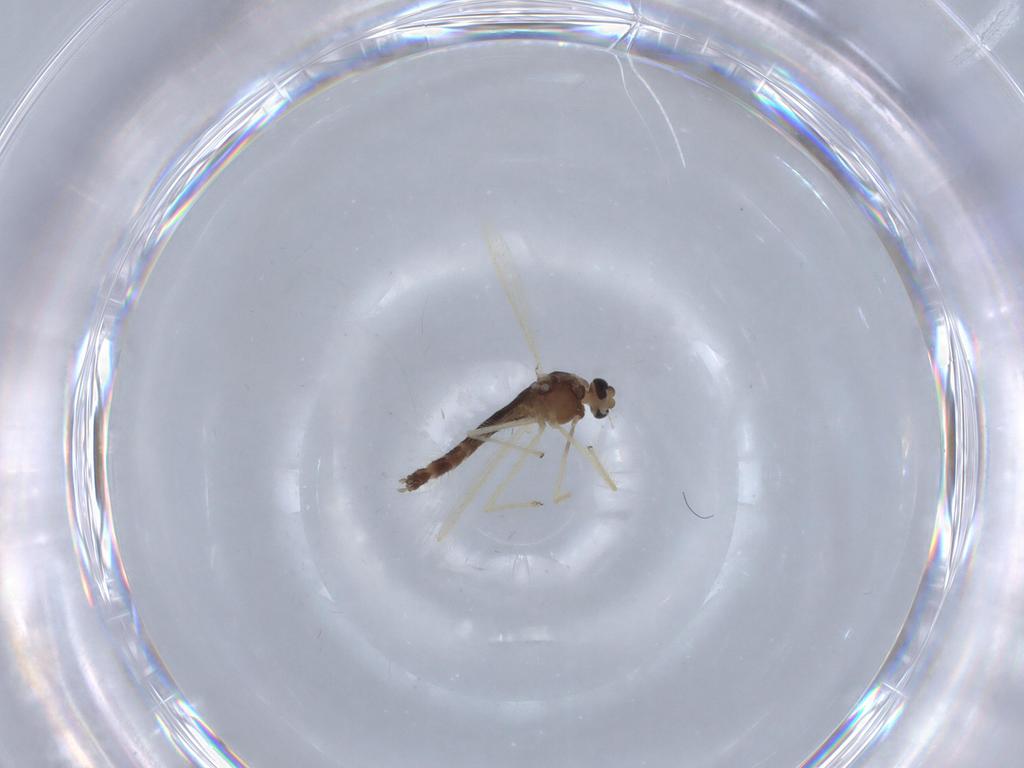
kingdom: Animalia
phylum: Arthropoda
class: Insecta
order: Diptera
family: Chironomidae
